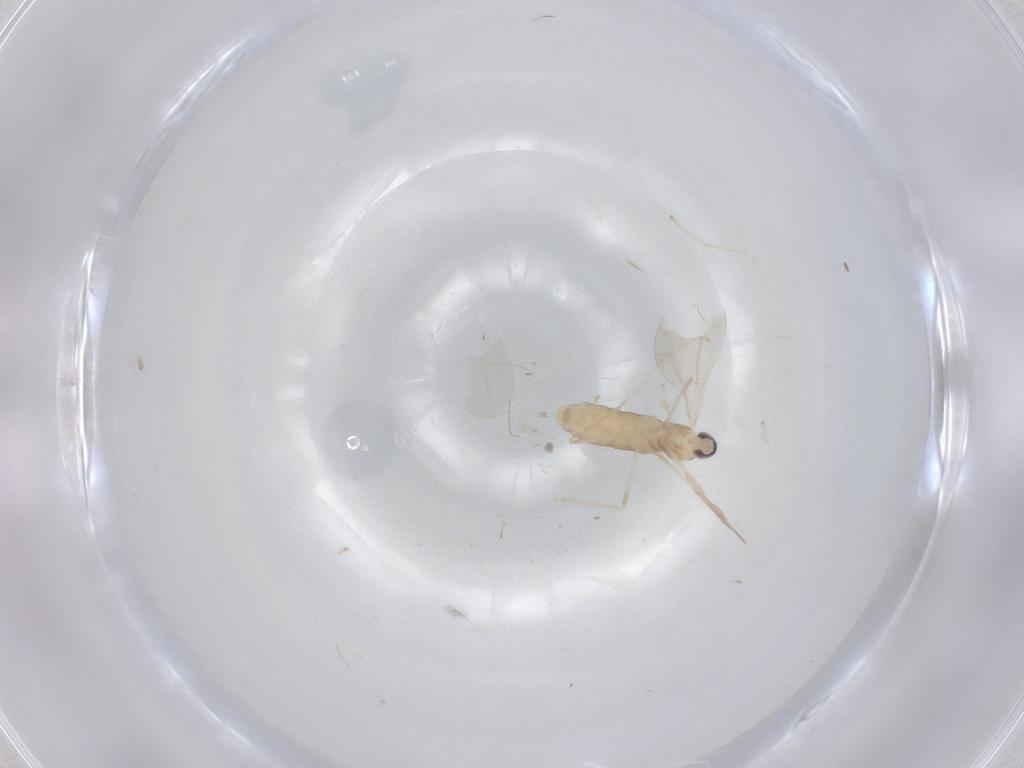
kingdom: Animalia
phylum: Arthropoda
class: Insecta
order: Diptera
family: Cecidomyiidae
